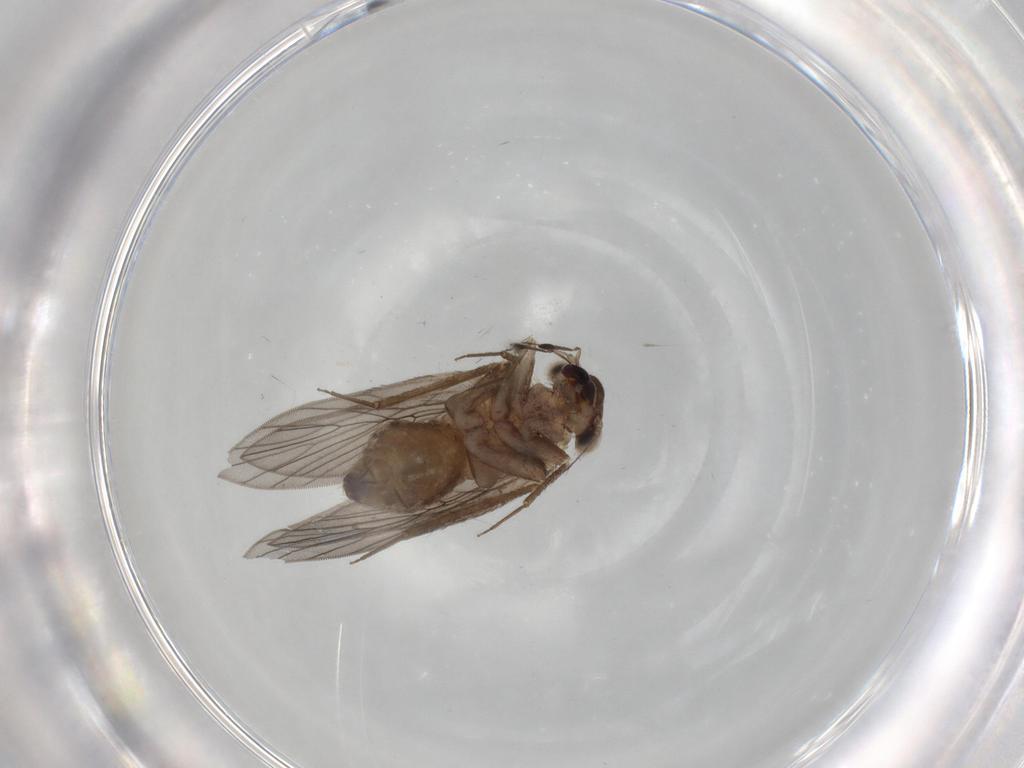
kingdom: Animalia
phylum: Arthropoda
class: Insecta
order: Psocodea
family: Lepidopsocidae
